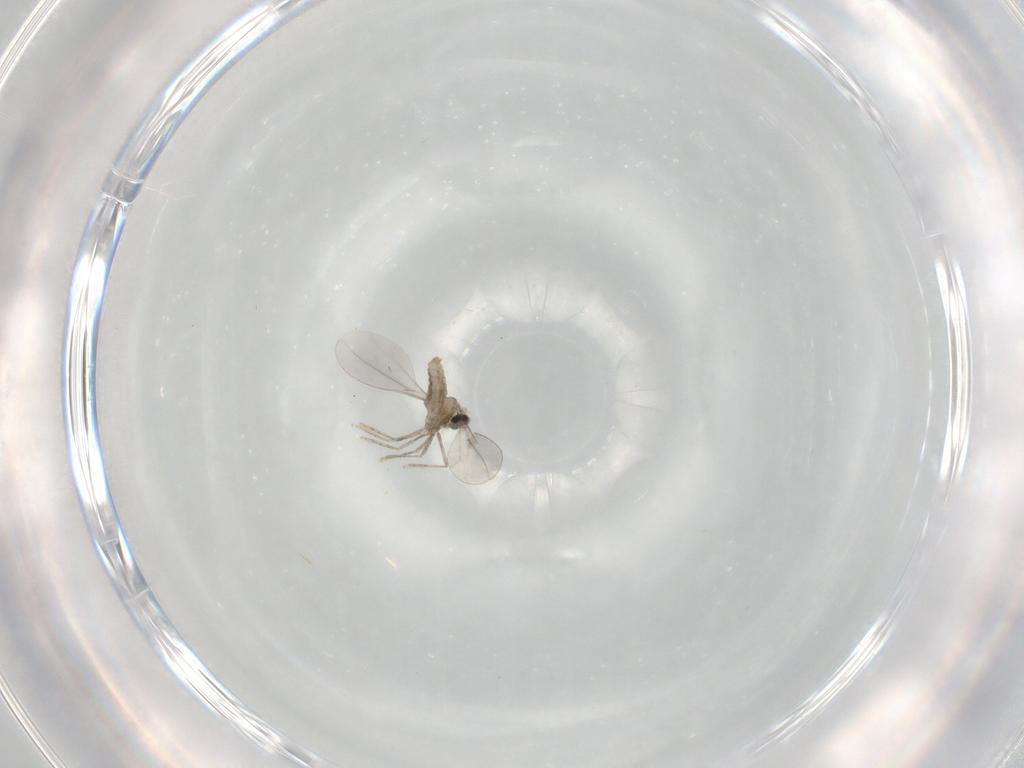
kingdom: Animalia
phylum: Arthropoda
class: Insecta
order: Diptera
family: Cecidomyiidae
